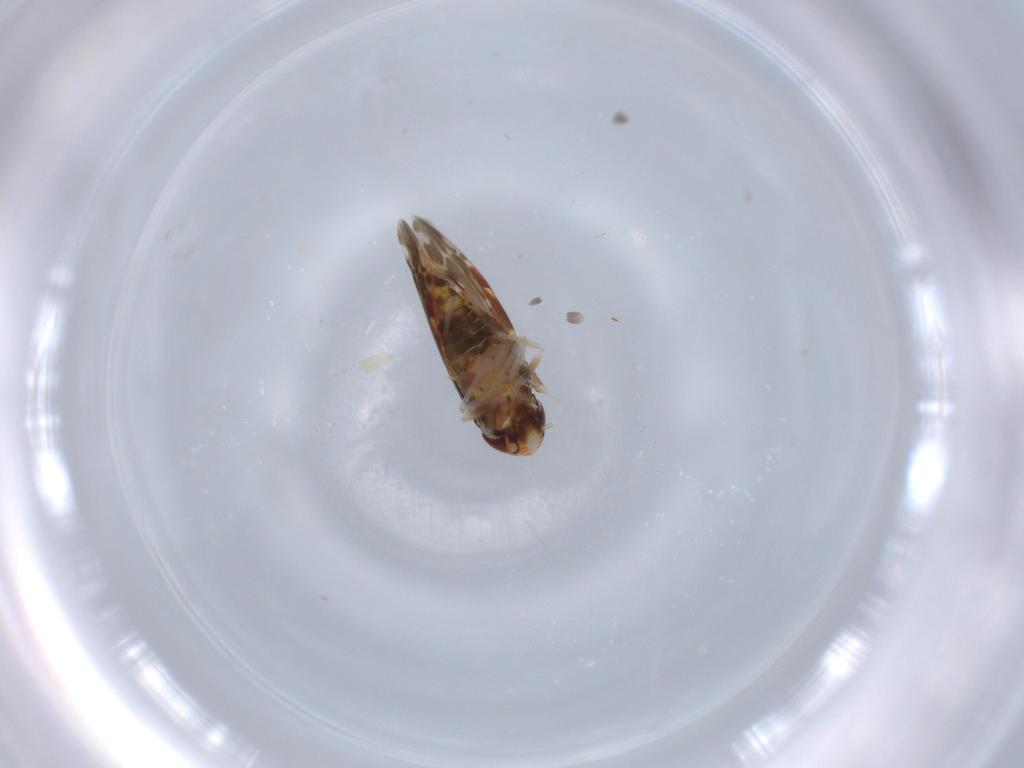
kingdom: Animalia
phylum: Arthropoda
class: Insecta
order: Hemiptera
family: Cicadellidae
